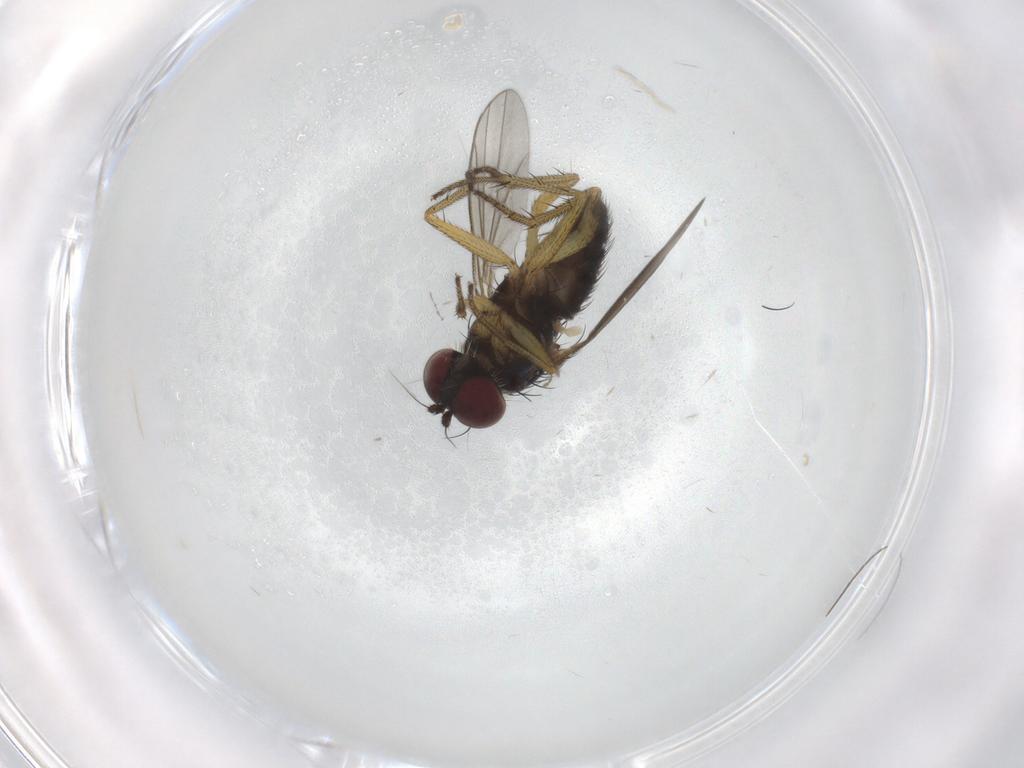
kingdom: Animalia
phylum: Arthropoda
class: Insecta
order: Diptera
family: Ceratopogonidae
